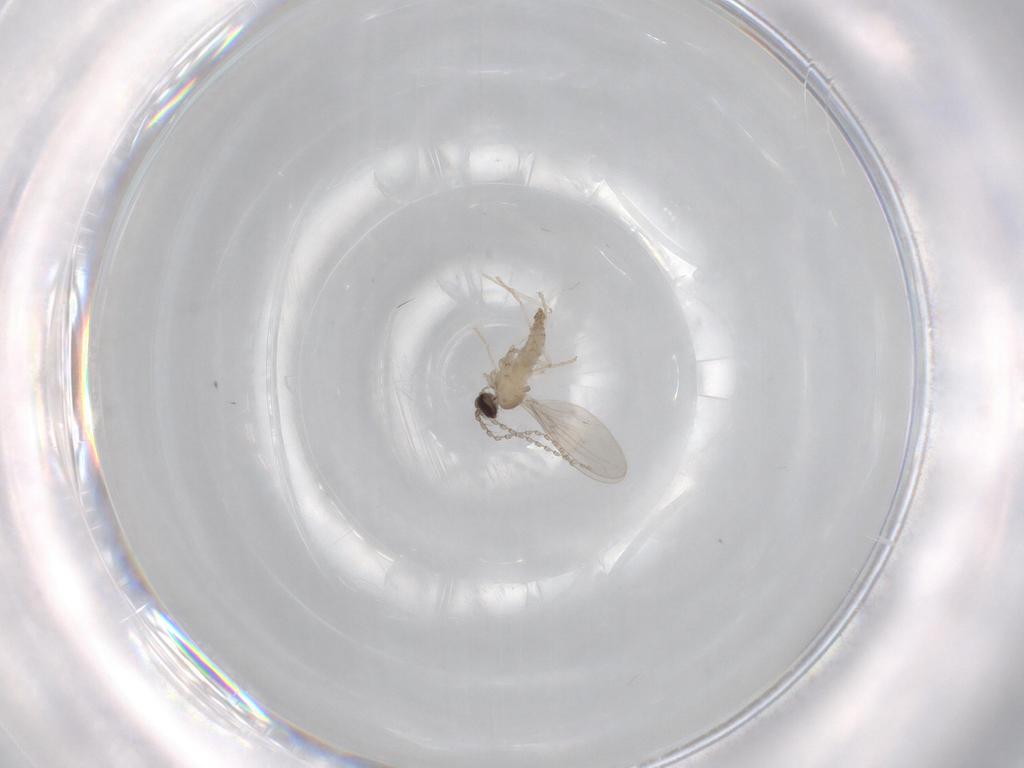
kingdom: Animalia
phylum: Arthropoda
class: Insecta
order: Diptera
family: Cecidomyiidae
